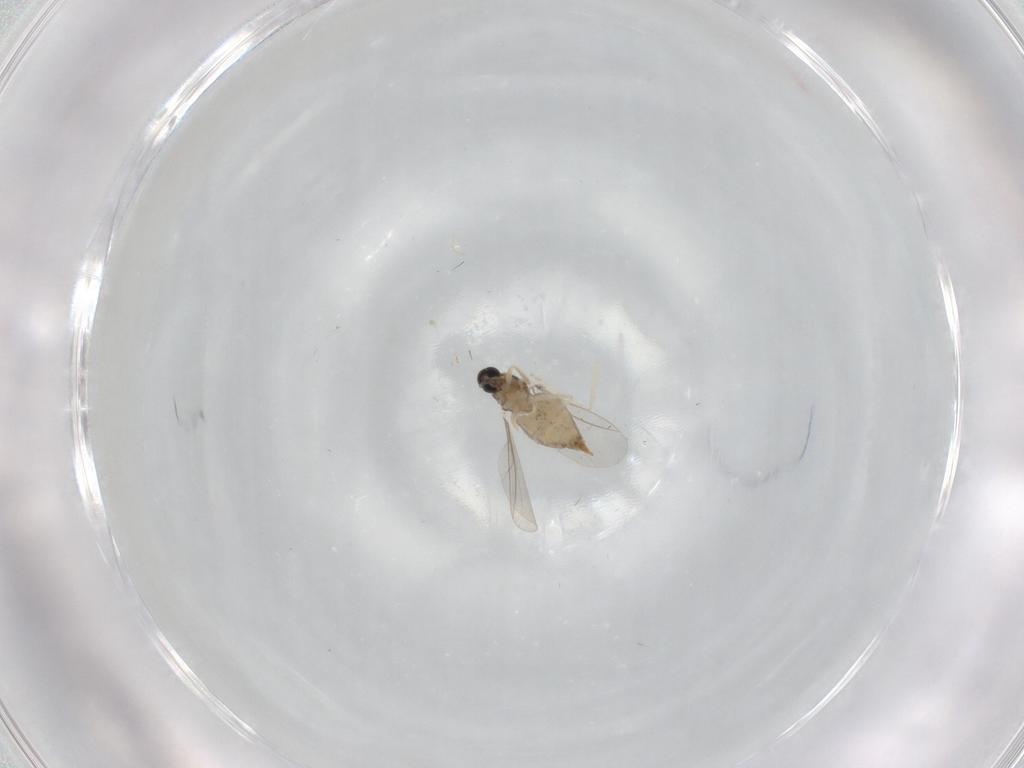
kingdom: Animalia
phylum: Arthropoda
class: Insecta
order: Diptera
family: Cecidomyiidae
